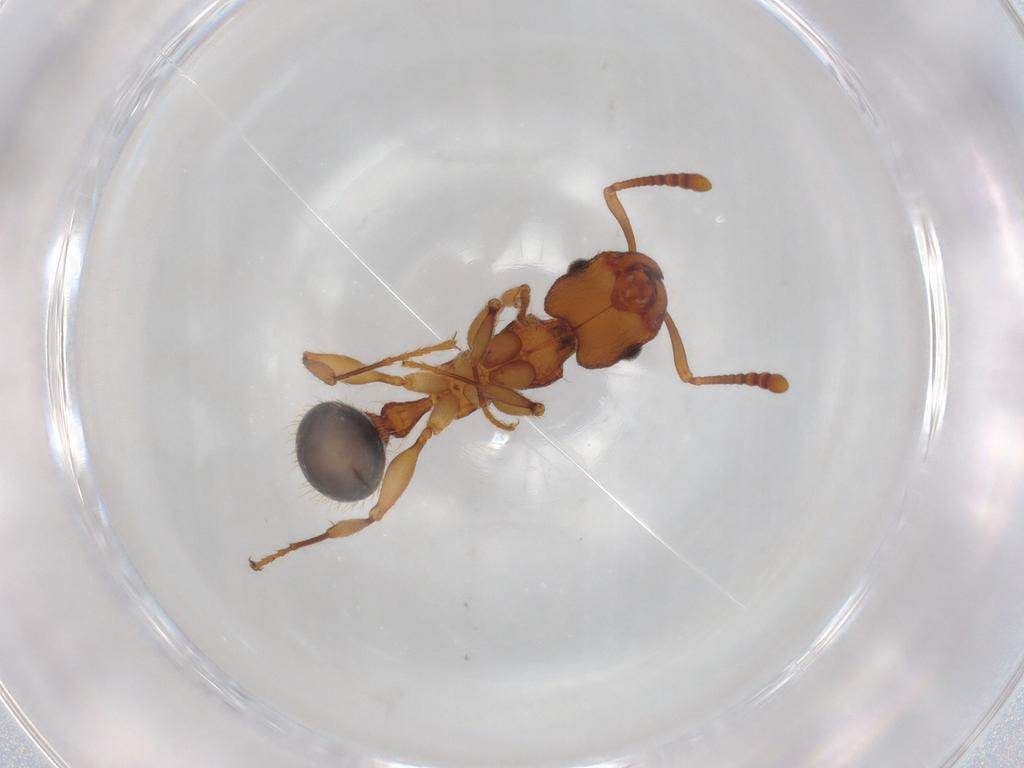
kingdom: Animalia
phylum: Arthropoda
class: Insecta
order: Hymenoptera
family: Formicidae
